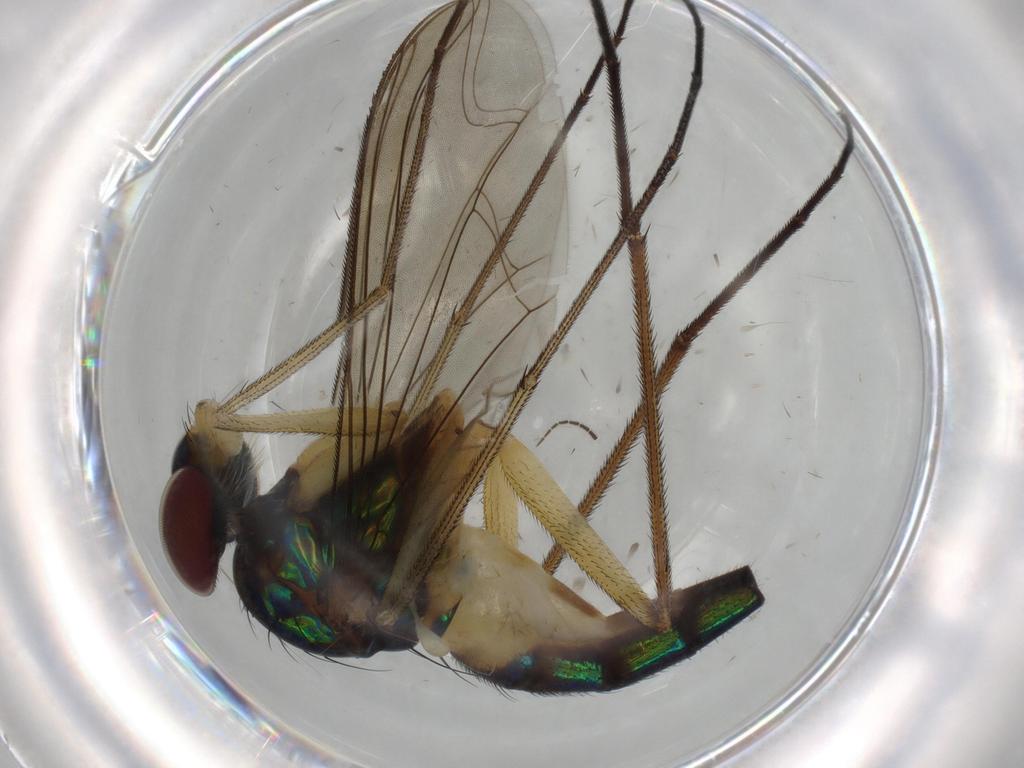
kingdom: Animalia
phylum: Arthropoda
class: Insecta
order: Diptera
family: Dolichopodidae
